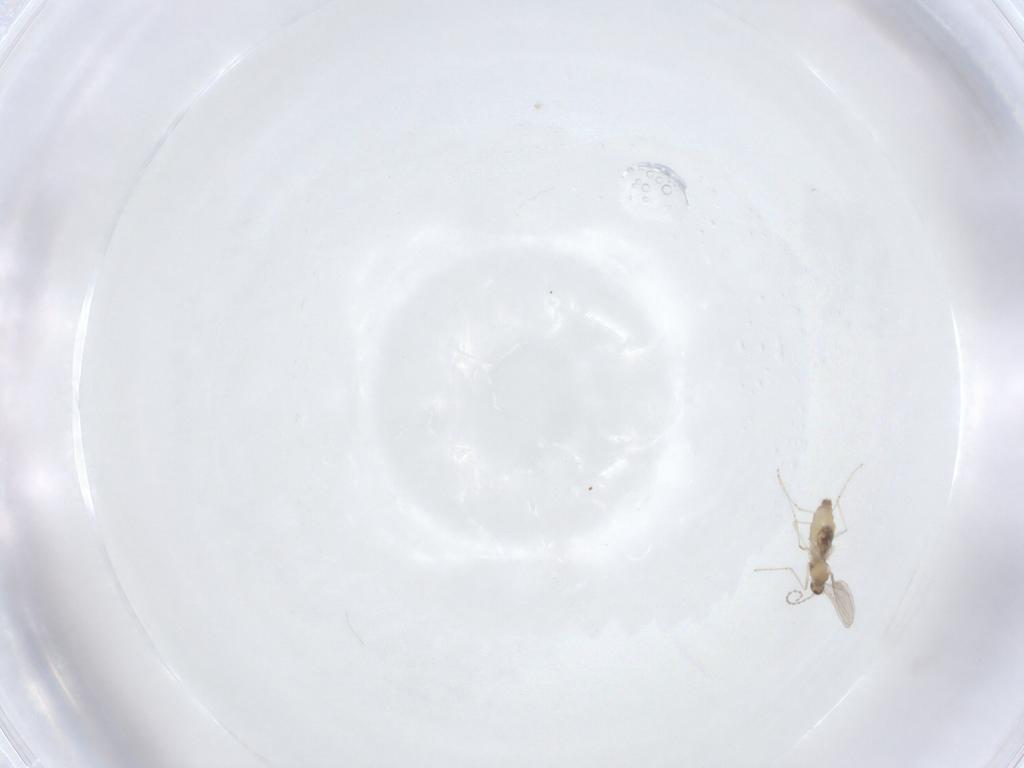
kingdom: Animalia
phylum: Arthropoda
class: Insecta
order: Diptera
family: Cecidomyiidae
